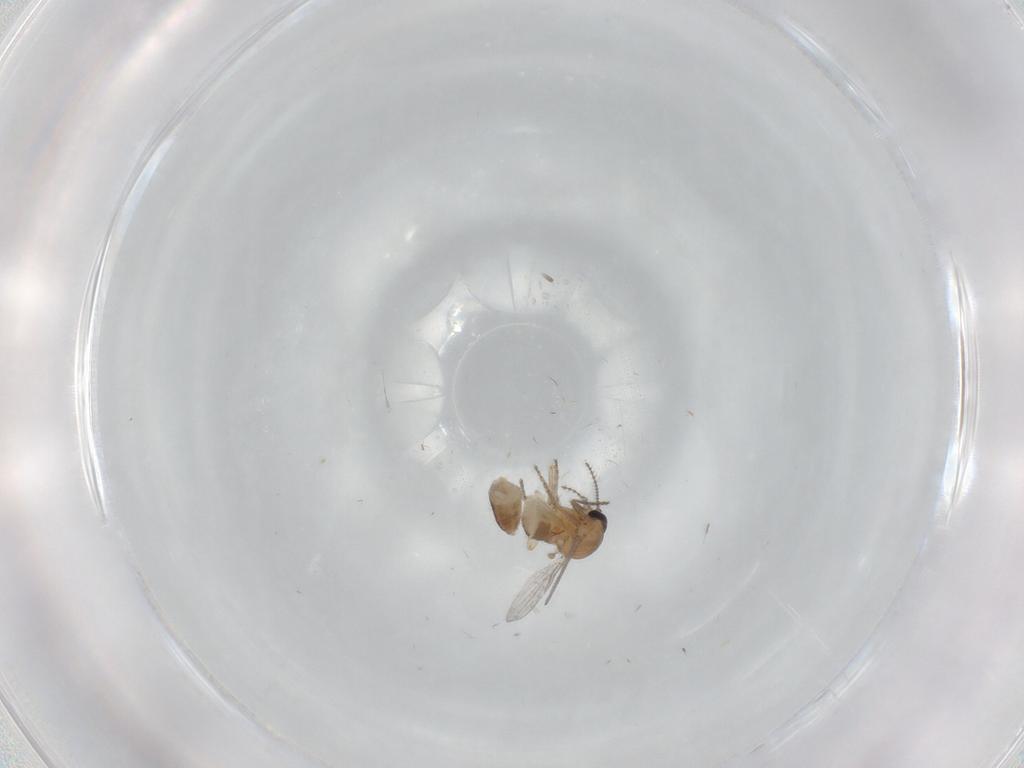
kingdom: Animalia
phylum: Arthropoda
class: Insecta
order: Diptera
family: Ceratopogonidae
